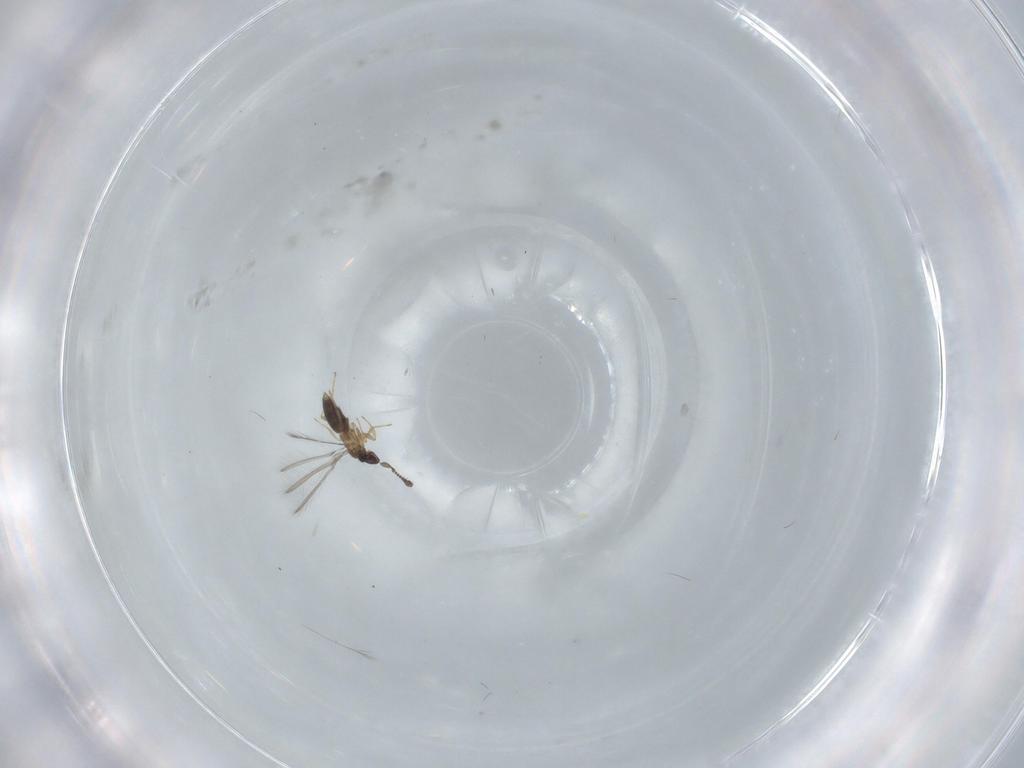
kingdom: Animalia
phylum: Arthropoda
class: Insecta
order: Hymenoptera
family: Mymaridae
